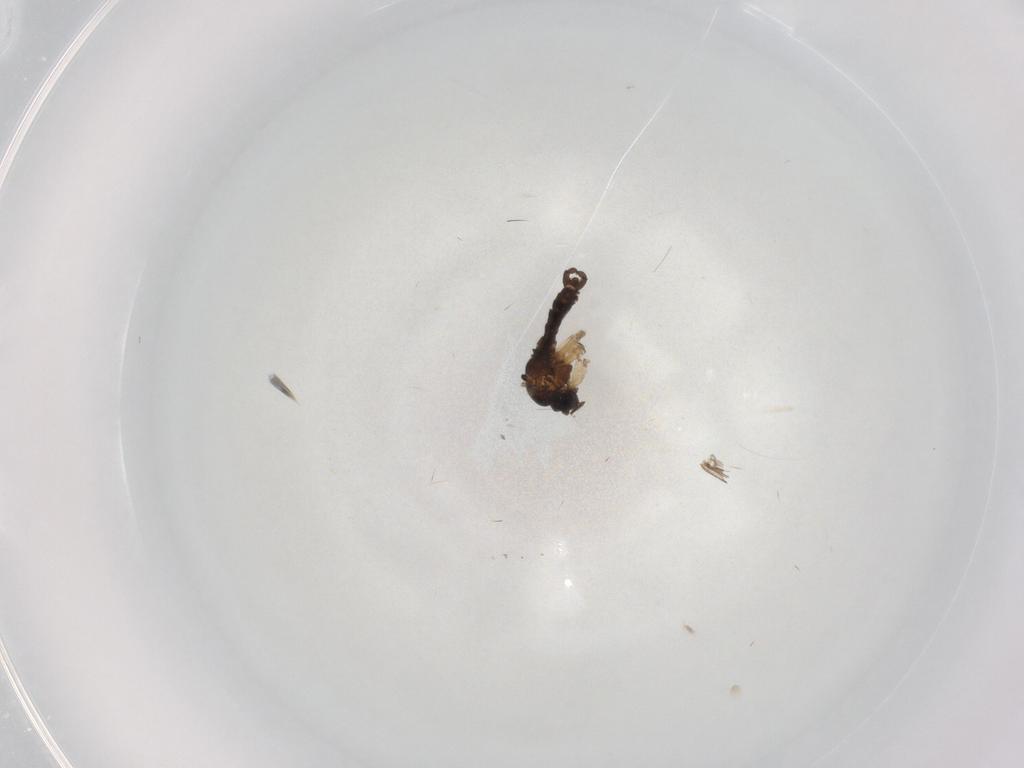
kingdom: Animalia
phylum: Arthropoda
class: Insecta
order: Diptera
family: Sciaridae
